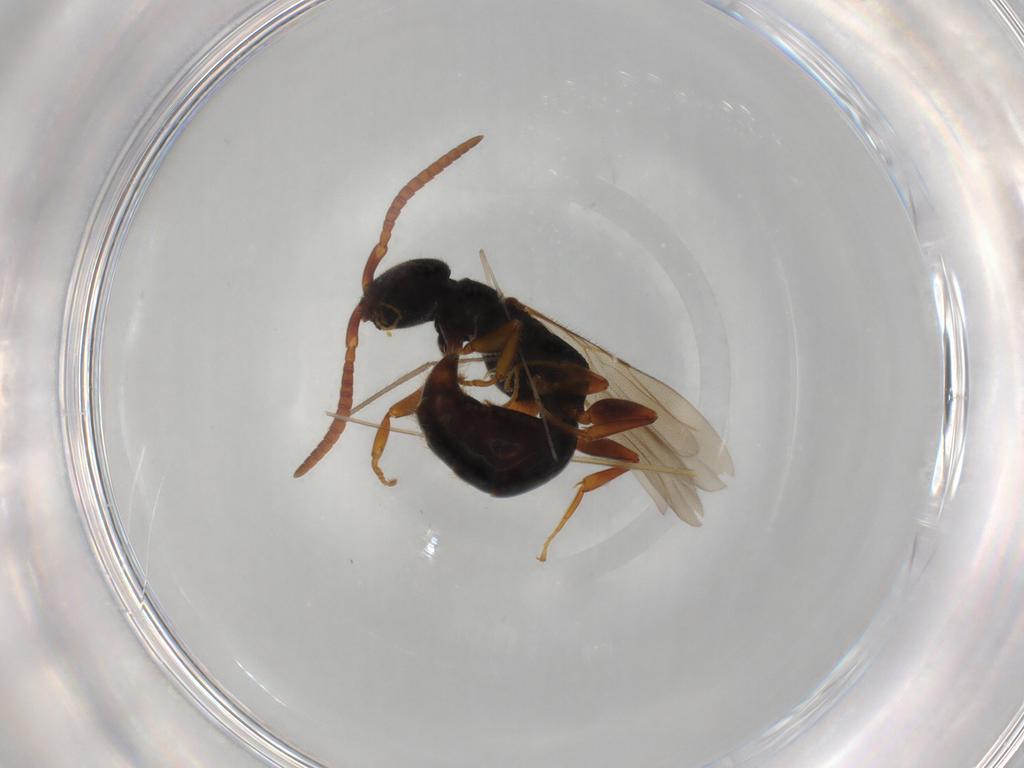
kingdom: Animalia
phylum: Arthropoda
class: Insecta
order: Hymenoptera
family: Bethylidae
